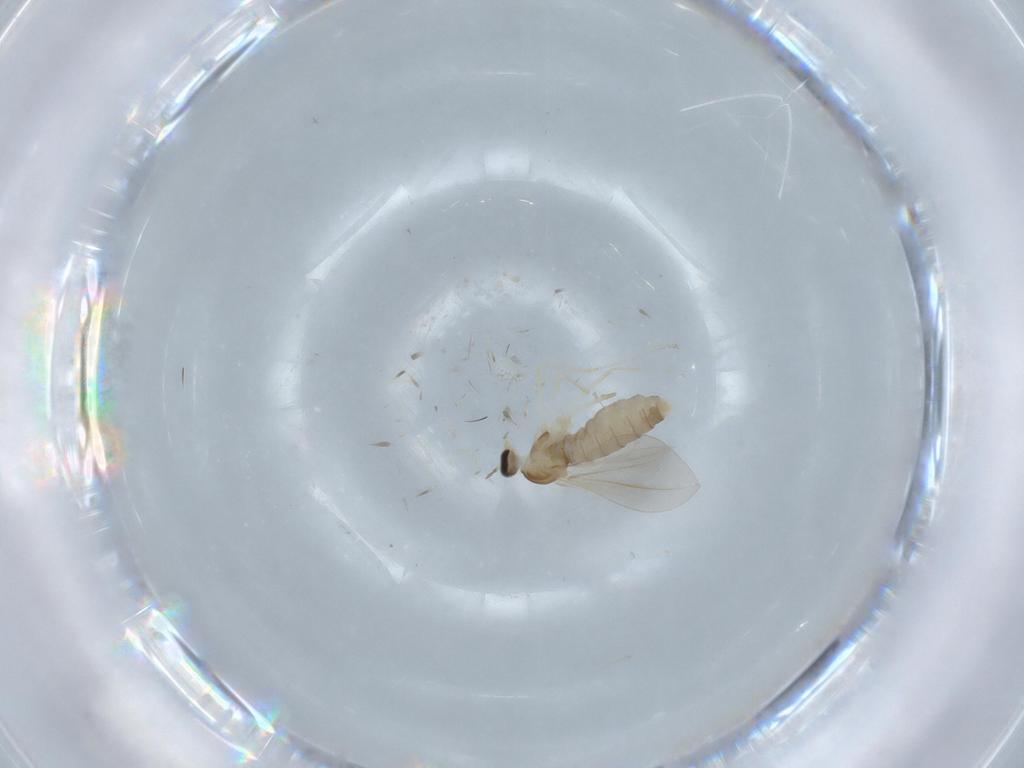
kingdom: Animalia
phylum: Arthropoda
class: Insecta
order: Diptera
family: Cecidomyiidae
